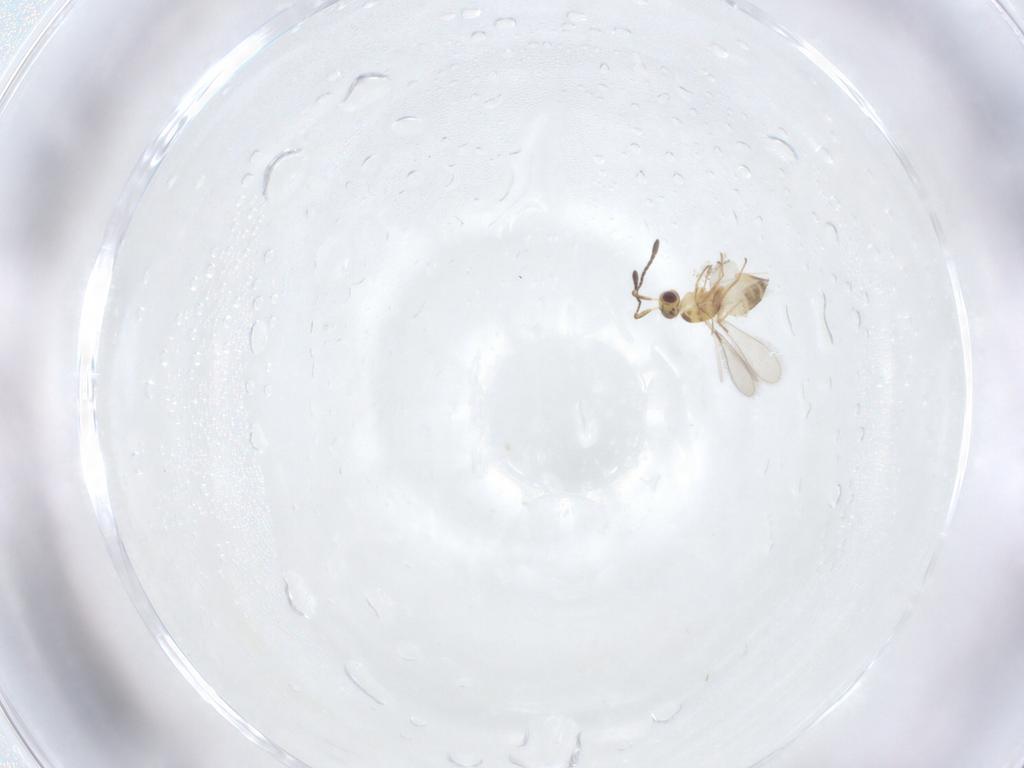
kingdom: Animalia
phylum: Arthropoda
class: Insecta
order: Hymenoptera
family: Mymaridae
